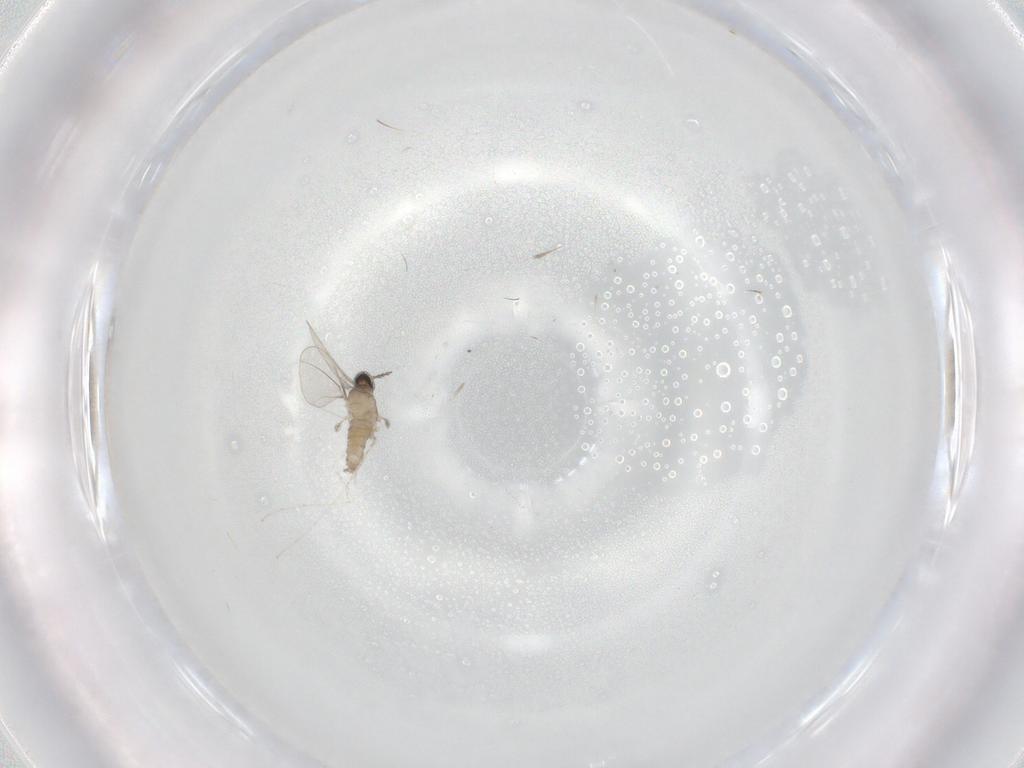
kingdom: Animalia
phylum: Arthropoda
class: Insecta
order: Diptera
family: Cecidomyiidae
